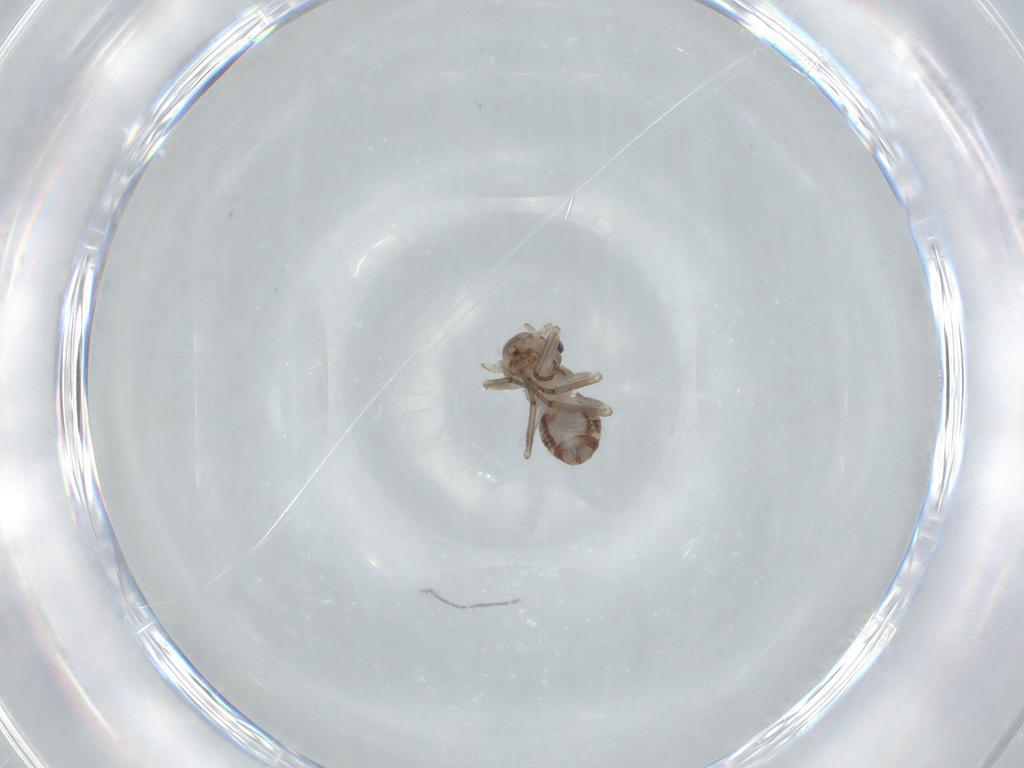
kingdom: Animalia
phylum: Arthropoda
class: Insecta
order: Psocodea
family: Psocidae
